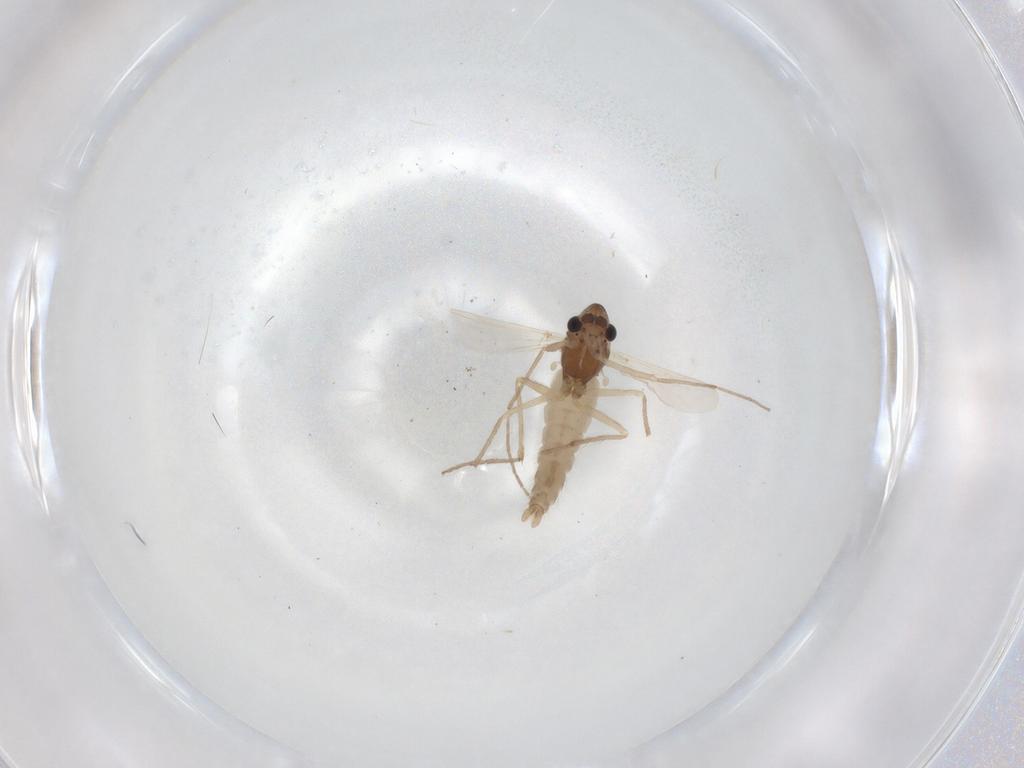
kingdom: Animalia
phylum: Arthropoda
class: Insecta
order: Diptera
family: Chironomidae
